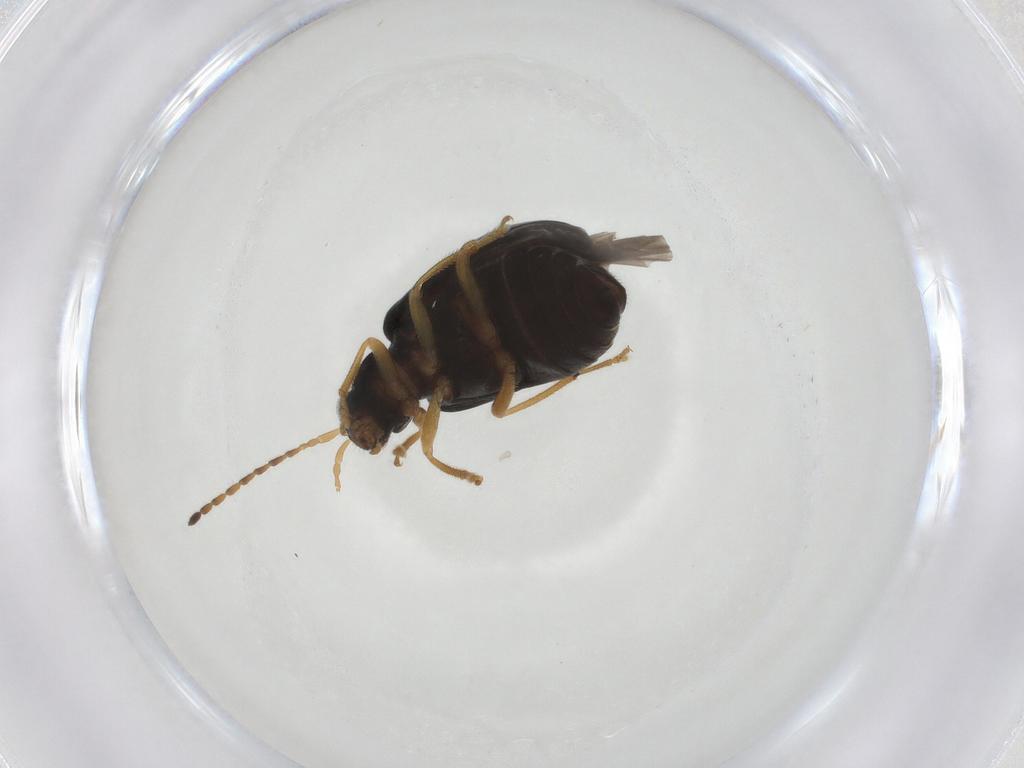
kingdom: Animalia
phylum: Arthropoda
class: Insecta
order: Coleoptera
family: Chrysomelidae
